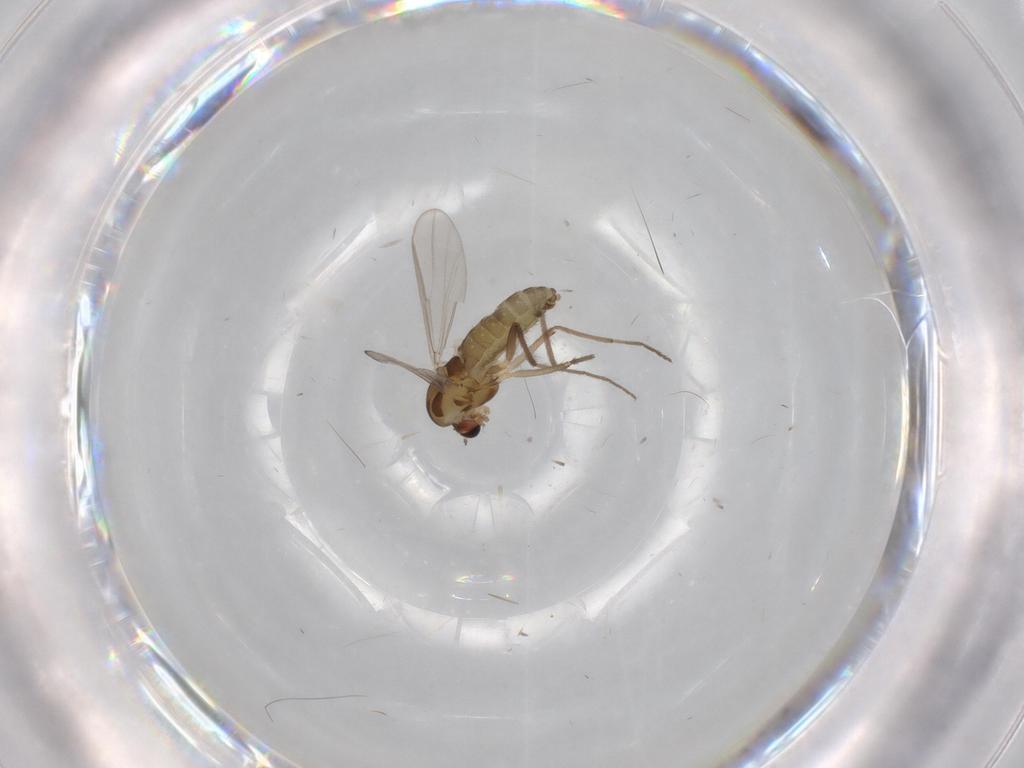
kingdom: Animalia
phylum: Arthropoda
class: Insecta
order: Diptera
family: Chironomidae
